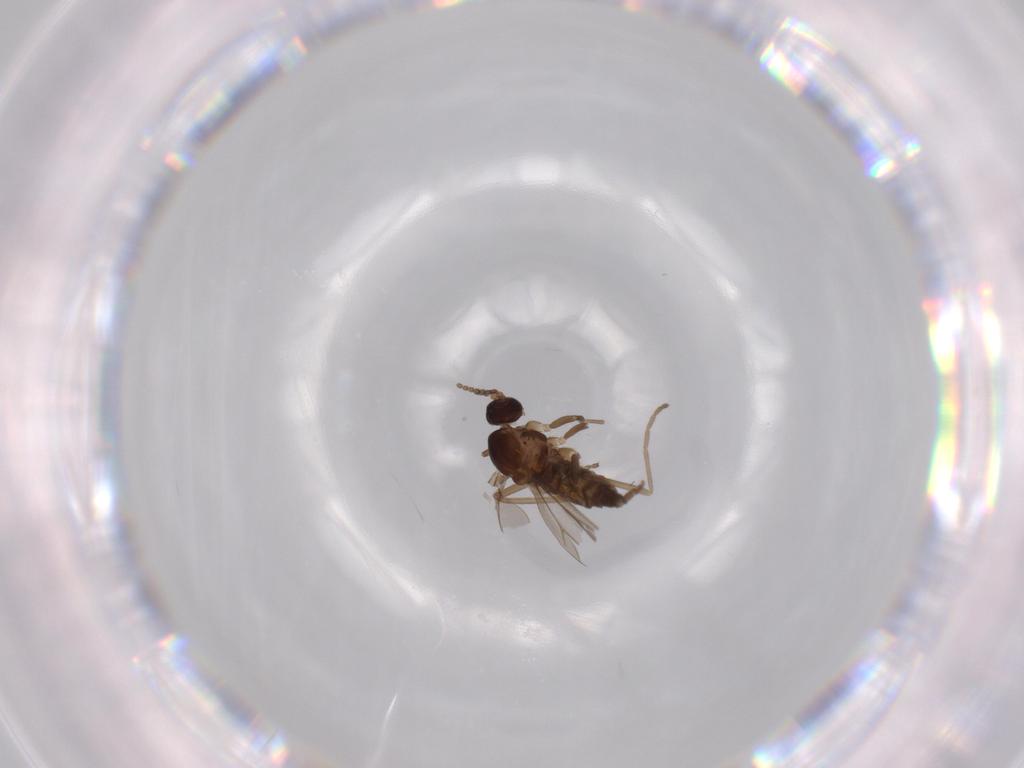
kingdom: Animalia
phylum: Arthropoda
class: Insecta
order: Diptera
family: Cecidomyiidae
